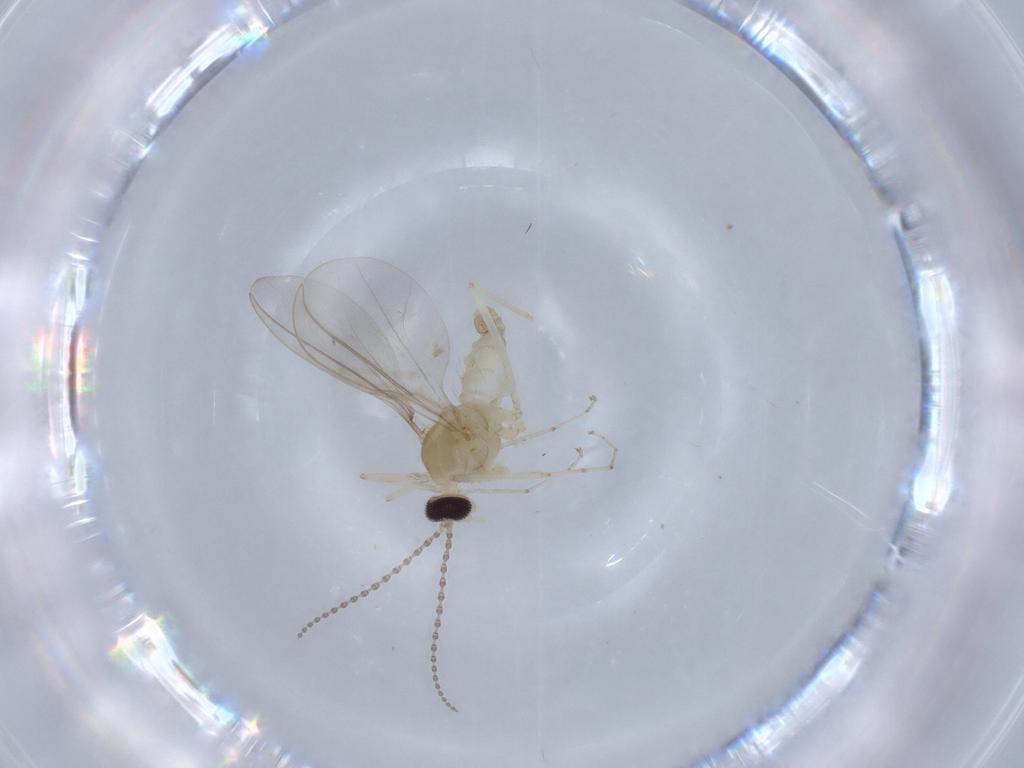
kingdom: Animalia
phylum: Arthropoda
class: Insecta
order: Diptera
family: Cecidomyiidae
